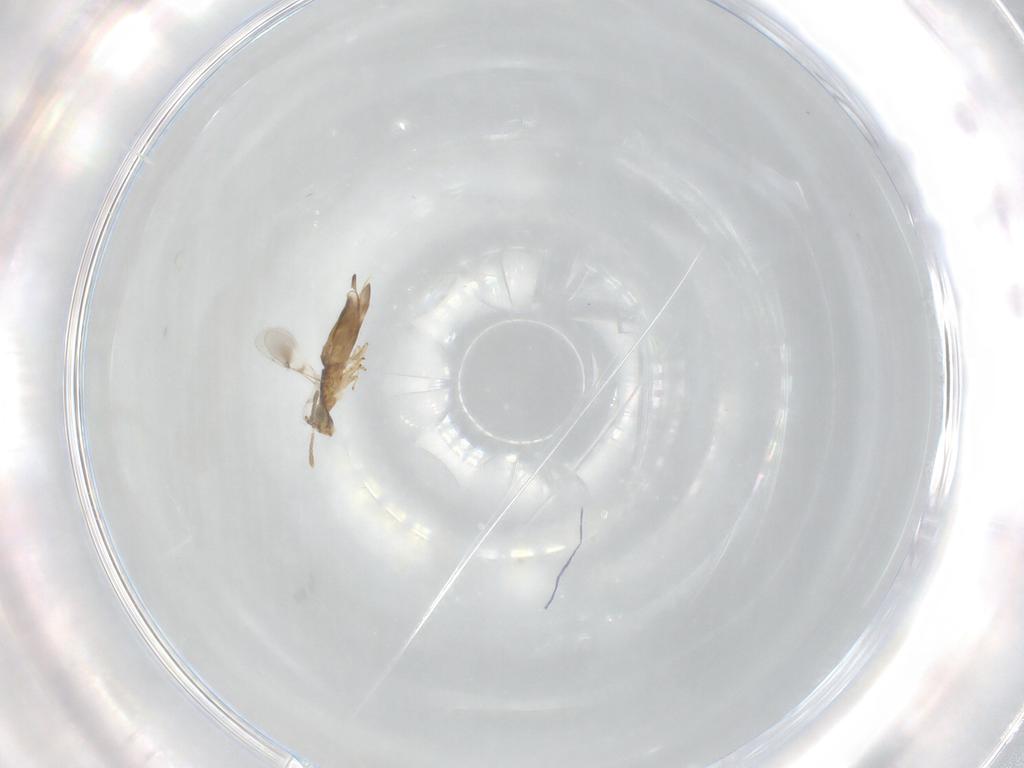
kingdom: Animalia
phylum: Arthropoda
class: Insecta
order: Hymenoptera
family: Encyrtidae
